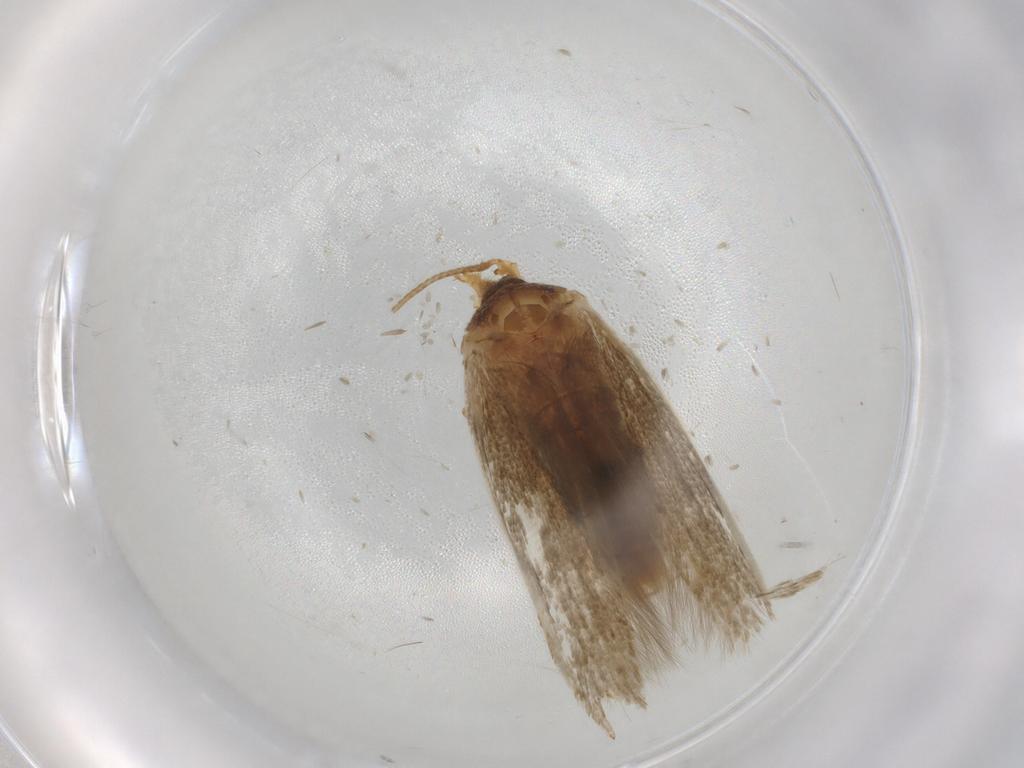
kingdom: Animalia
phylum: Arthropoda
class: Insecta
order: Lepidoptera
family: Blastobasidae
